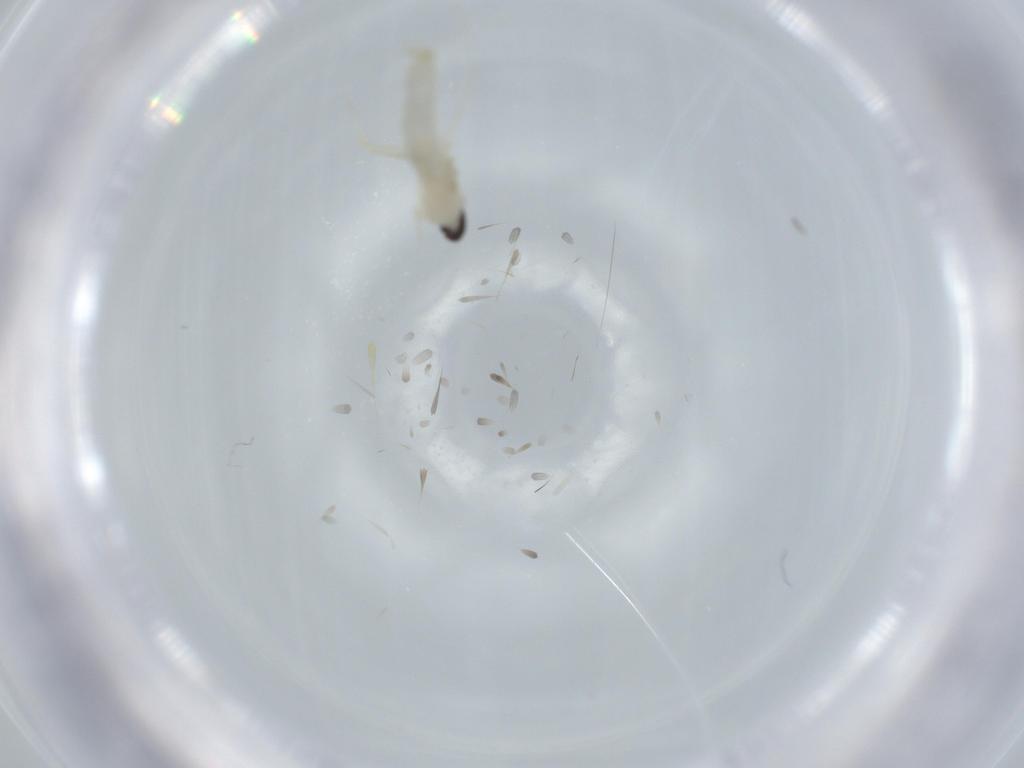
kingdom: Animalia
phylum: Arthropoda
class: Insecta
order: Diptera
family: Cecidomyiidae
